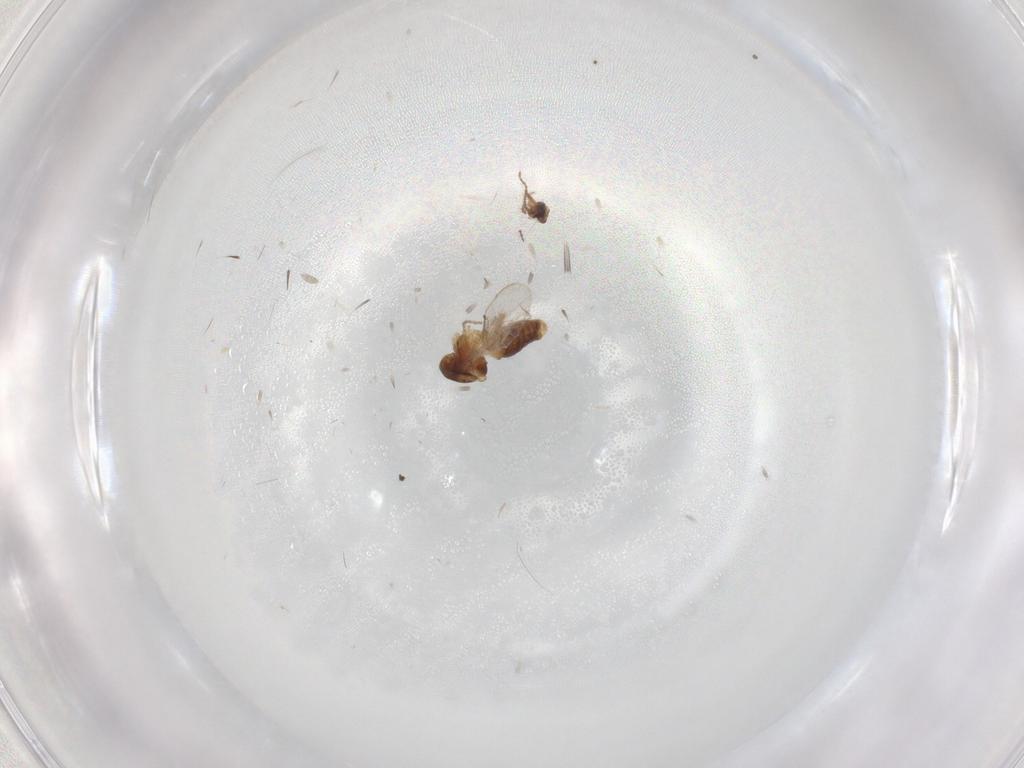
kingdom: Animalia
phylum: Arthropoda
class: Insecta
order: Diptera
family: Ceratopogonidae
